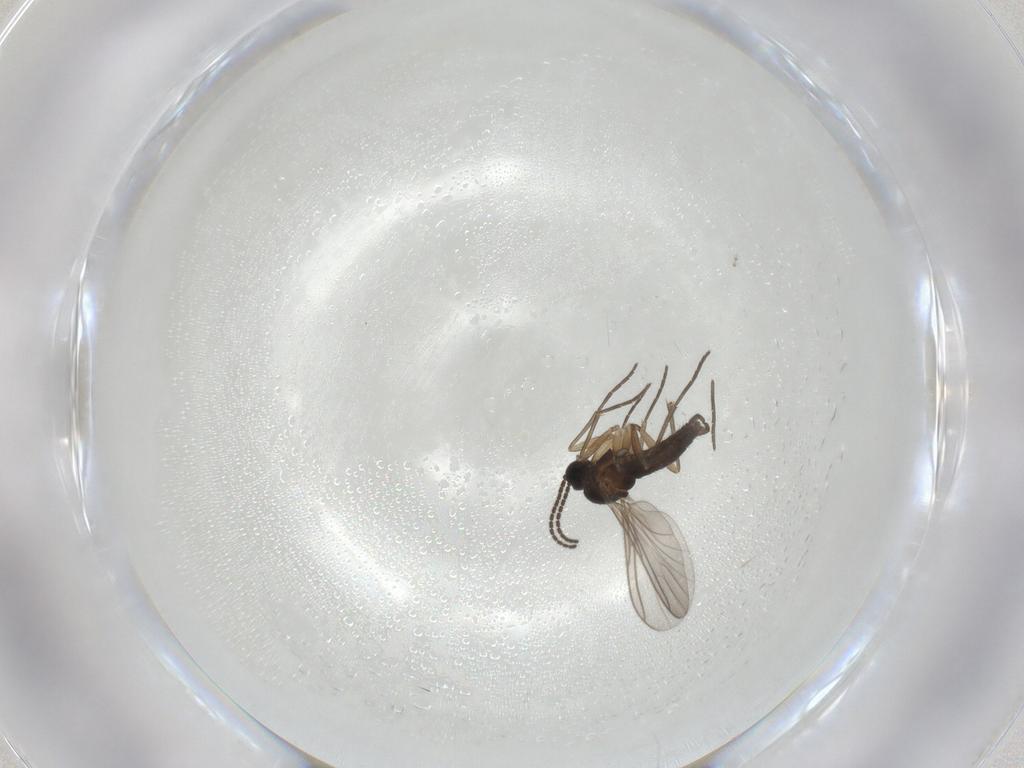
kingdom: Animalia
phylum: Arthropoda
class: Insecta
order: Diptera
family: Sciaridae
